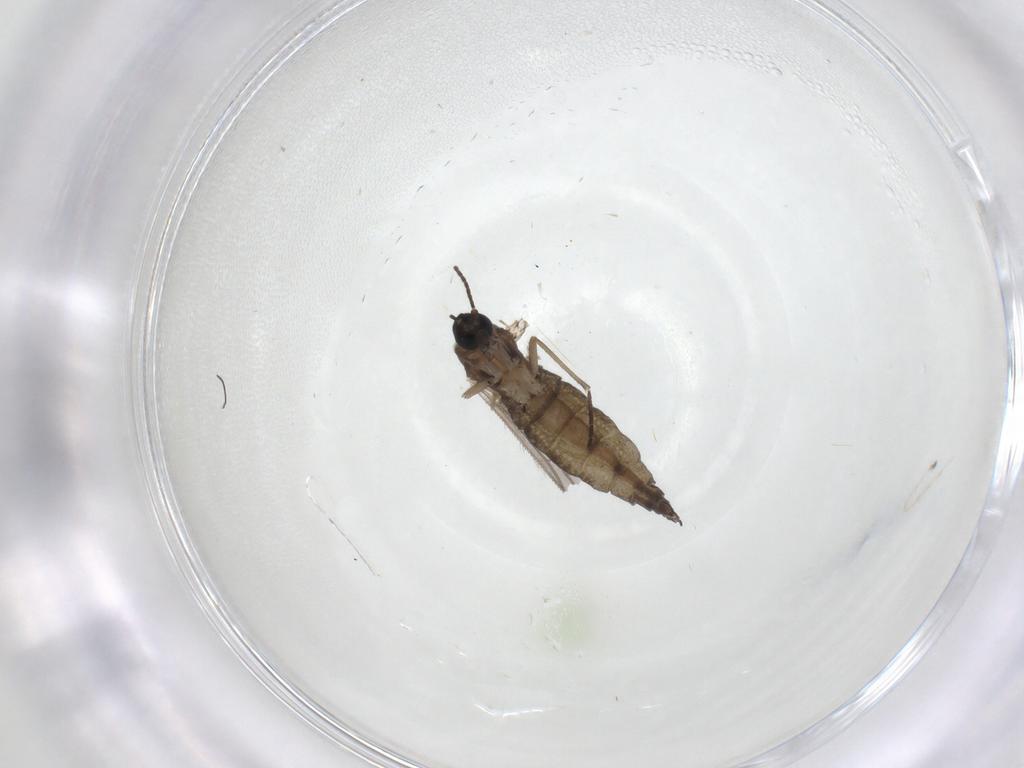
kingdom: Animalia
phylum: Arthropoda
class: Insecta
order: Diptera
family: Sciaridae
